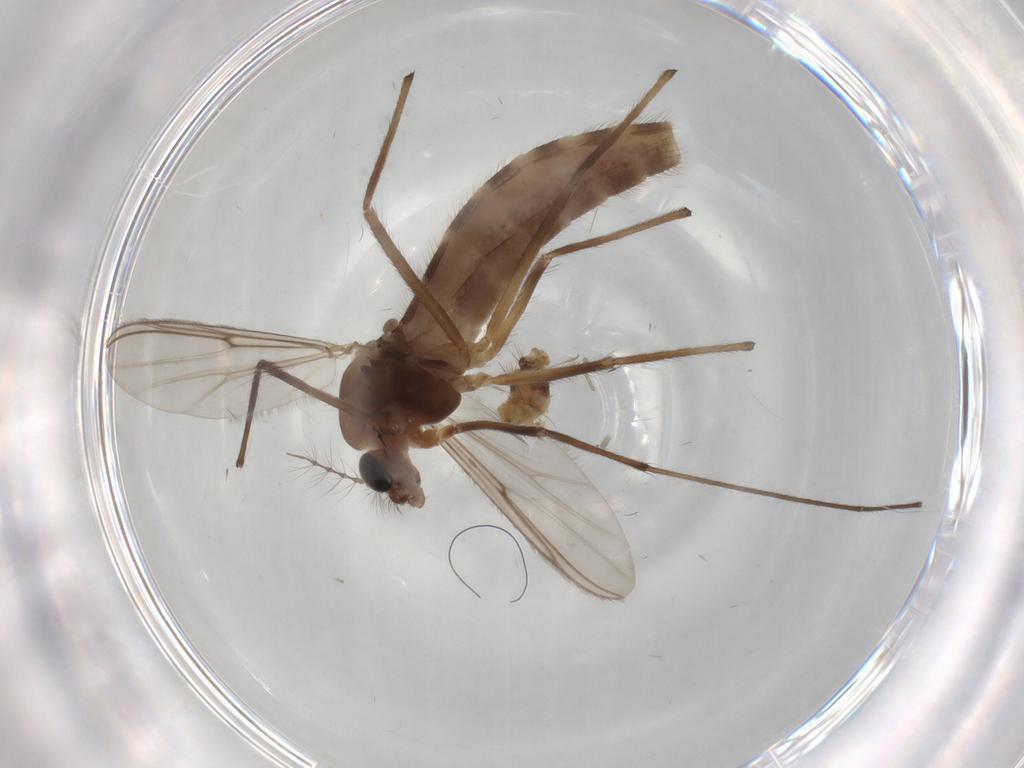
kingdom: Animalia
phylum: Arthropoda
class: Insecta
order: Diptera
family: Chironomidae
